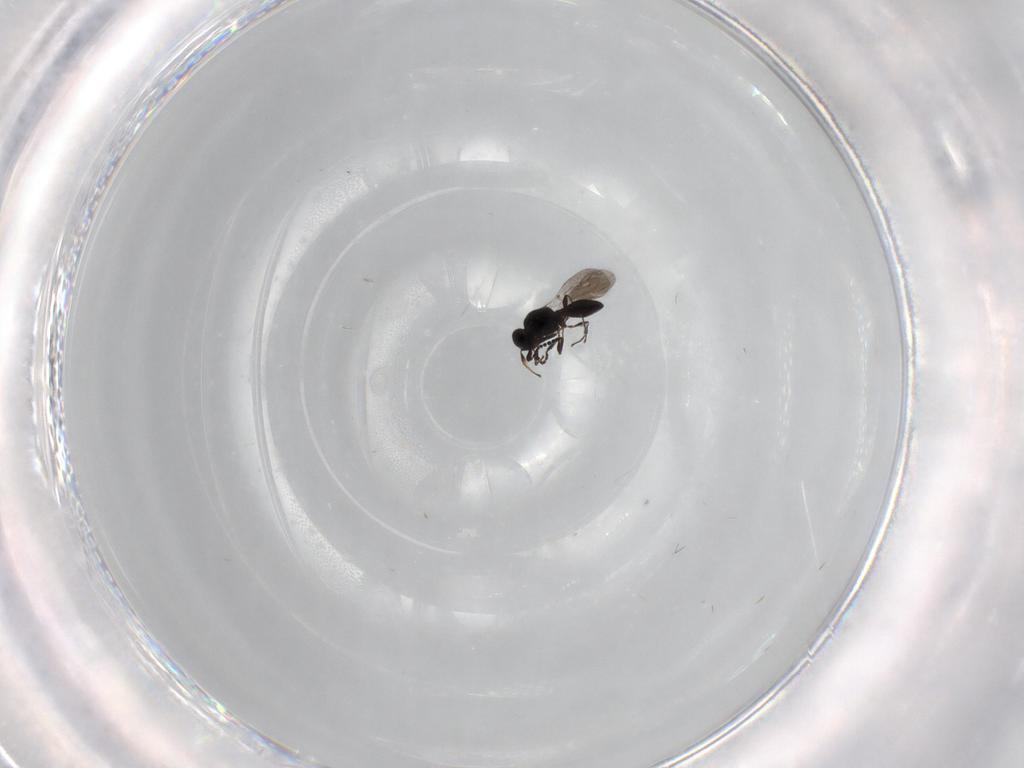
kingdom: Animalia
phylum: Arthropoda
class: Insecta
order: Hymenoptera
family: Platygastridae
